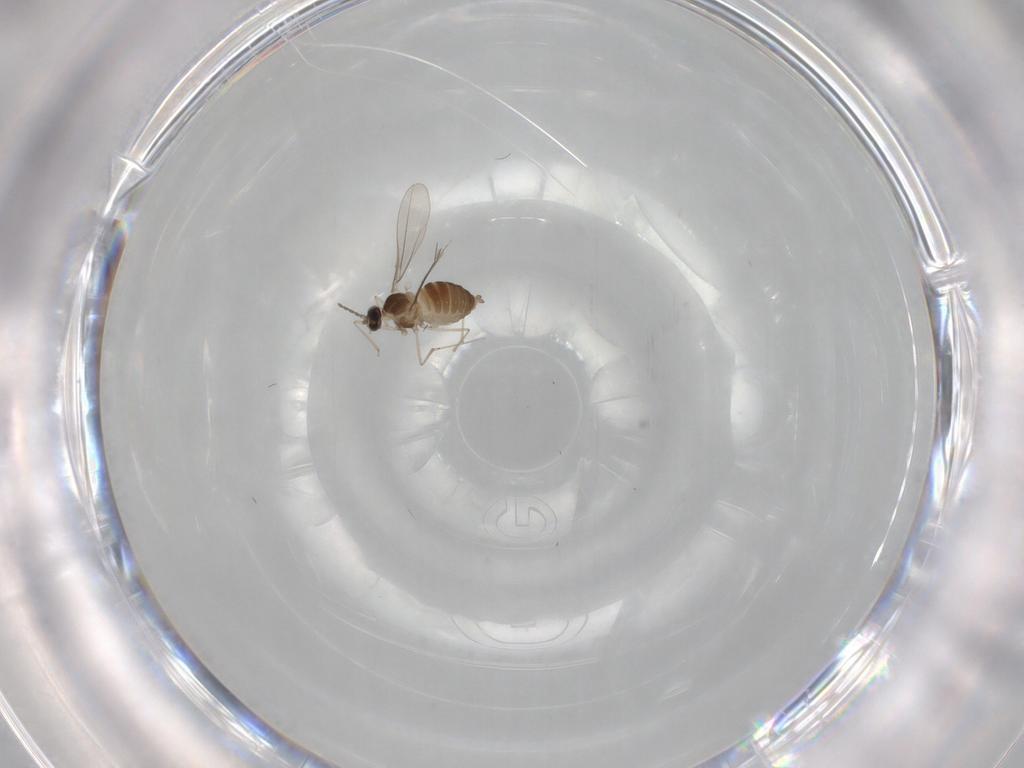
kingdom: Animalia
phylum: Arthropoda
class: Insecta
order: Diptera
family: Cecidomyiidae
